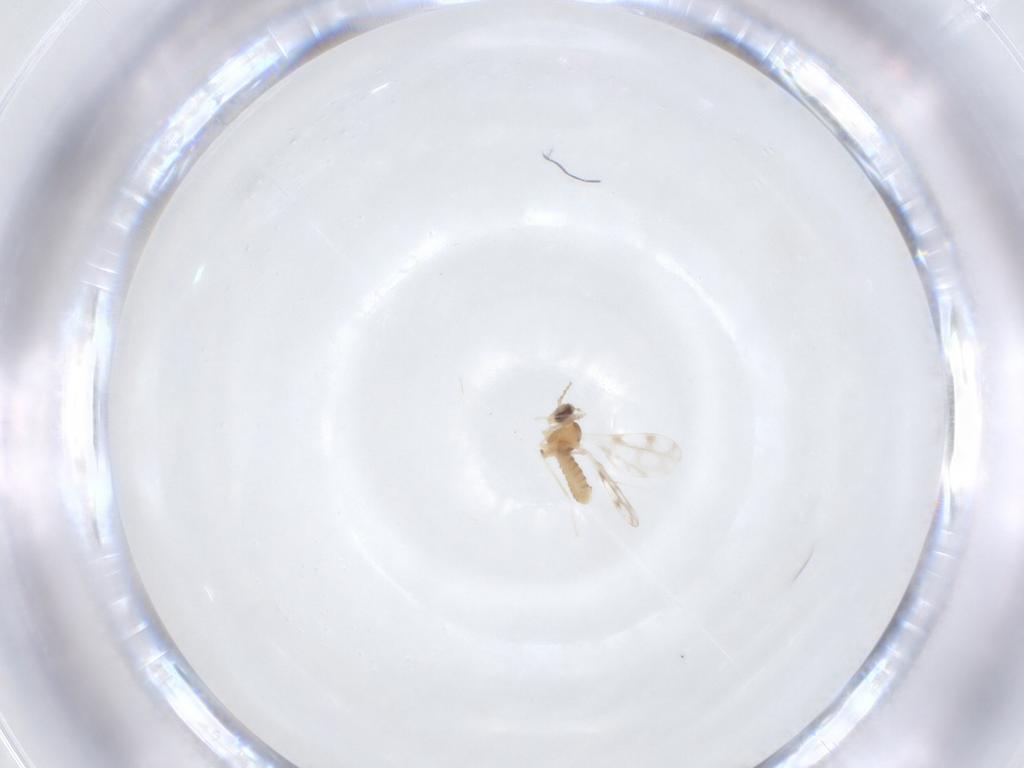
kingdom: Animalia
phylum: Arthropoda
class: Insecta
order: Diptera
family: Cecidomyiidae
